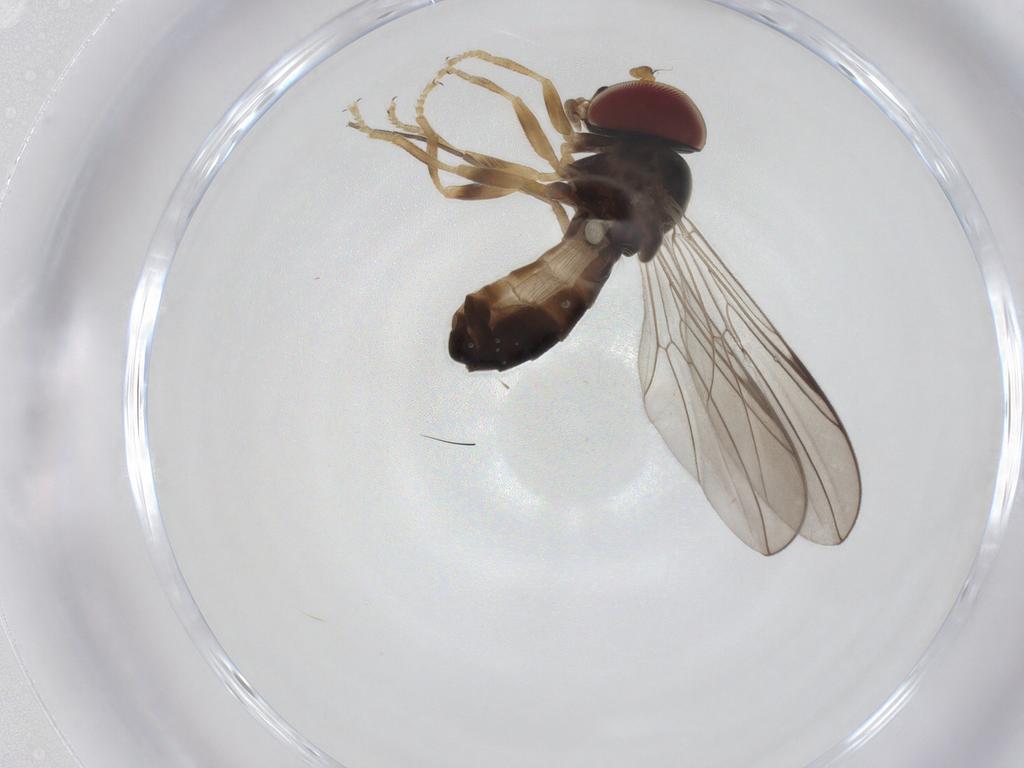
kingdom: Animalia
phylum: Arthropoda
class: Insecta
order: Diptera
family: Pipunculidae
